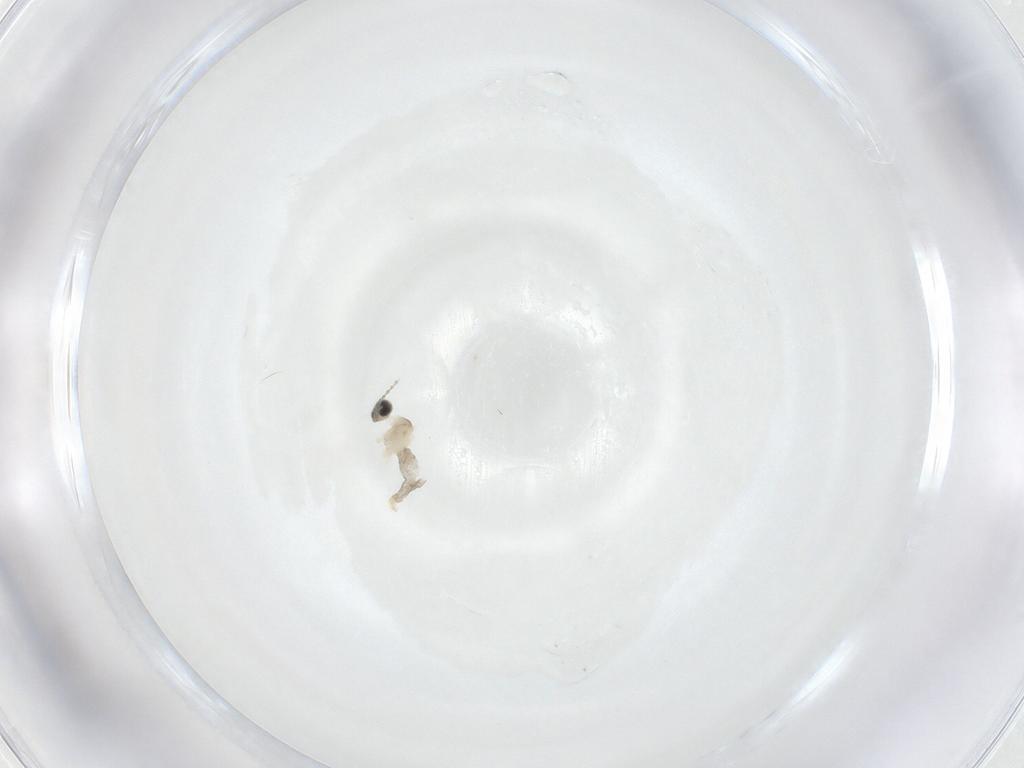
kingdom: Animalia
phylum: Arthropoda
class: Insecta
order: Diptera
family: Cecidomyiidae
